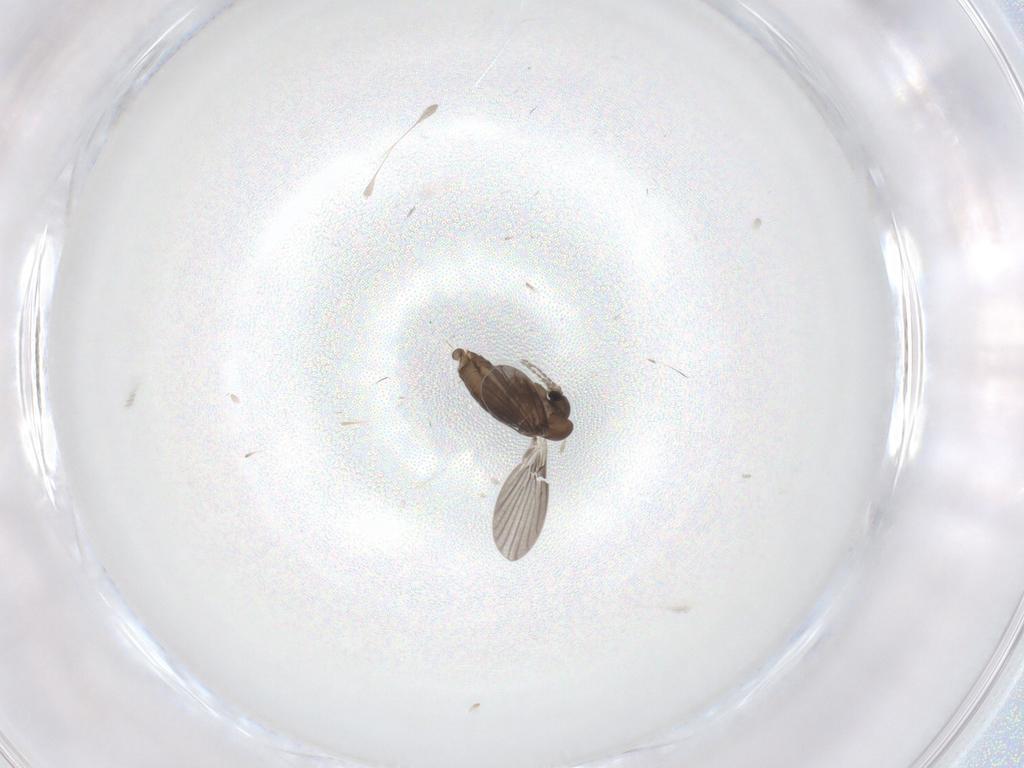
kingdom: Animalia
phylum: Arthropoda
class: Insecta
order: Diptera
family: Cecidomyiidae
